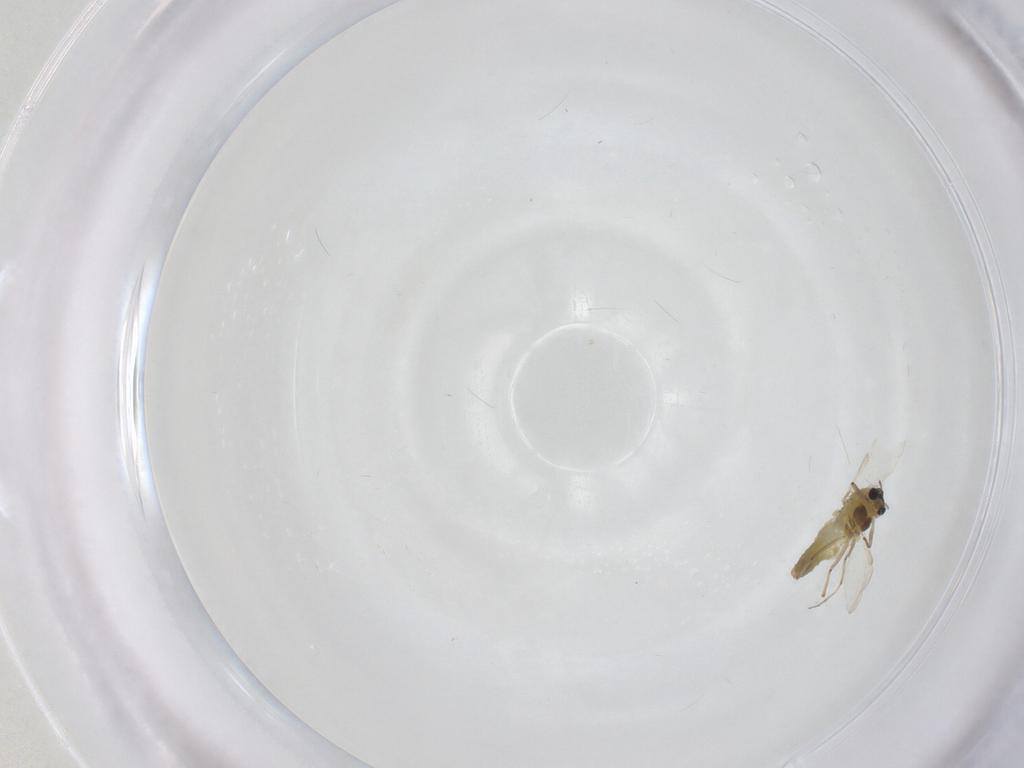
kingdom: Animalia
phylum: Arthropoda
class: Insecta
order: Diptera
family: Chironomidae
